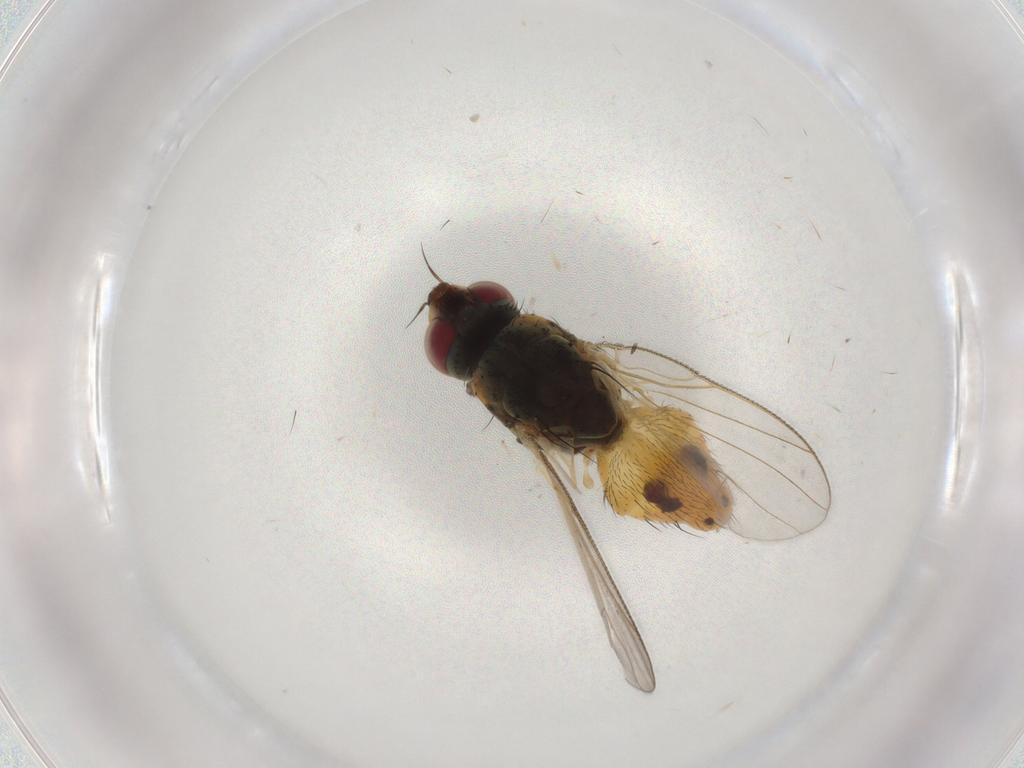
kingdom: Animalia
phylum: Arthropoda
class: Insecta
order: Diptera
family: Muscidae
